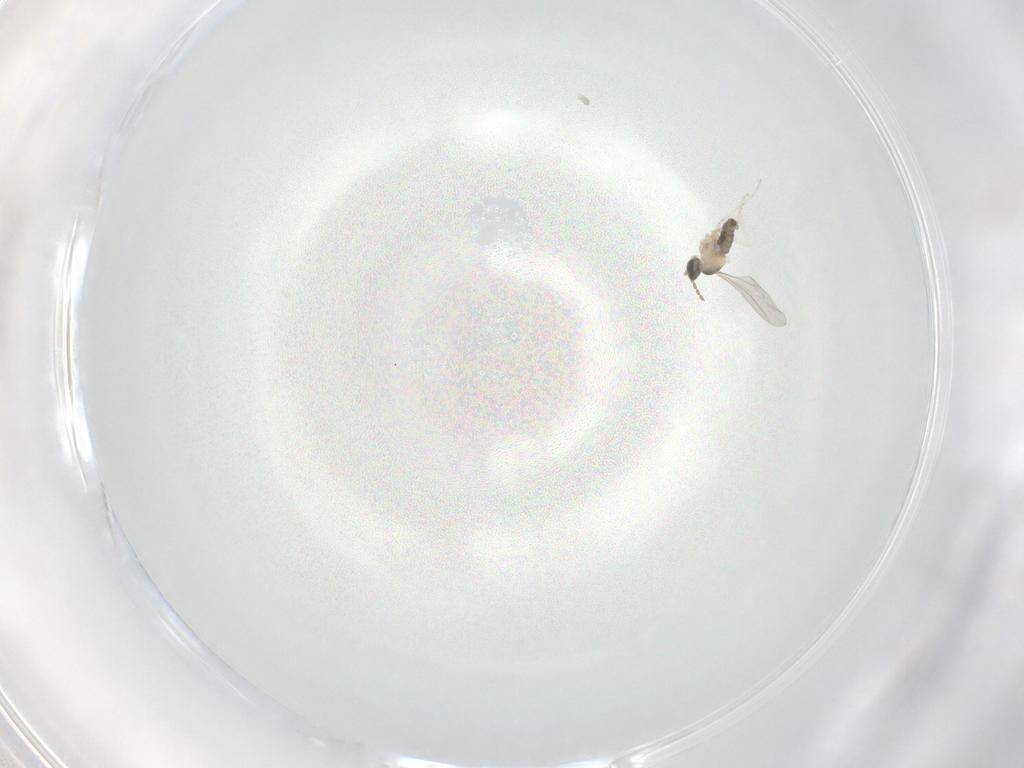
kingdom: Animalia
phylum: Arthropoda
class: Insecta
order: Diptera
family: Cecidomyiidae
